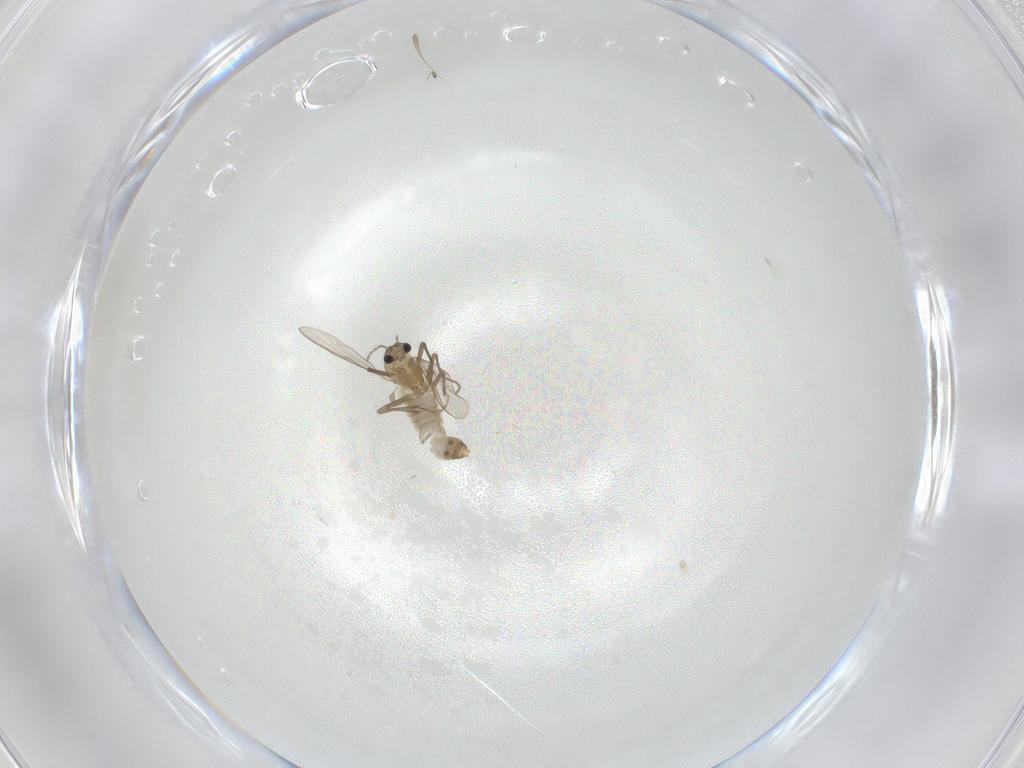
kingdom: Animalia
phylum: Arthropoda
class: Insecta
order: Diptera
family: Chironomidae
